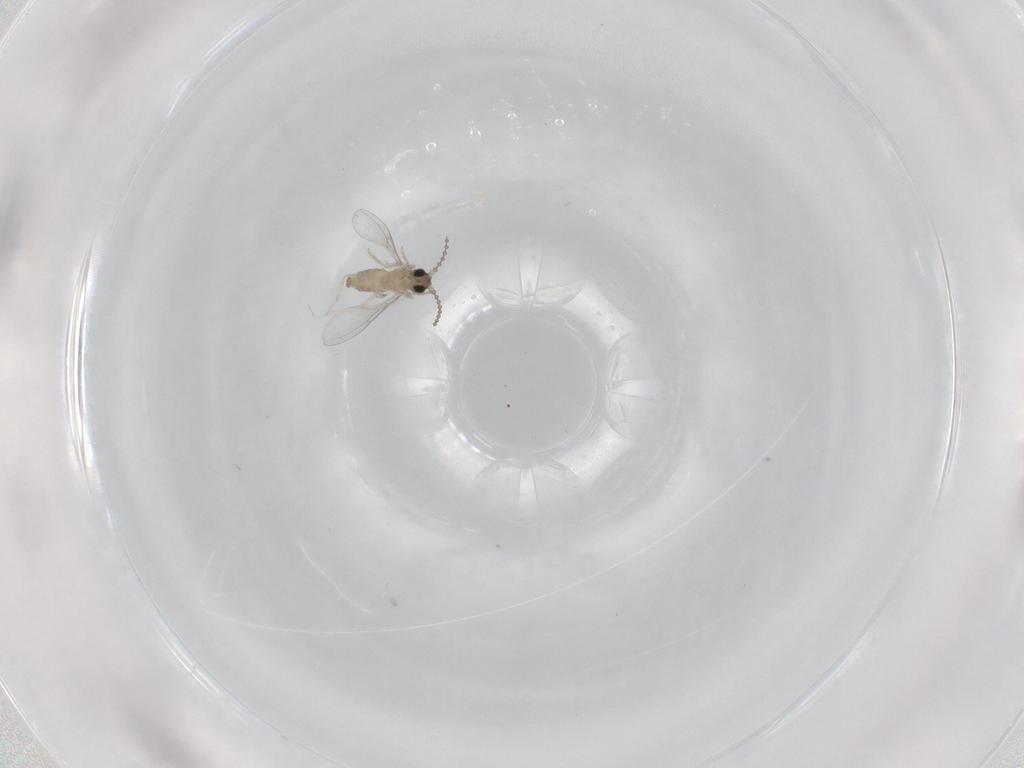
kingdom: Animalia
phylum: Arthropoda
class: Insecta
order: Diptera
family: Cecidomyiidae
